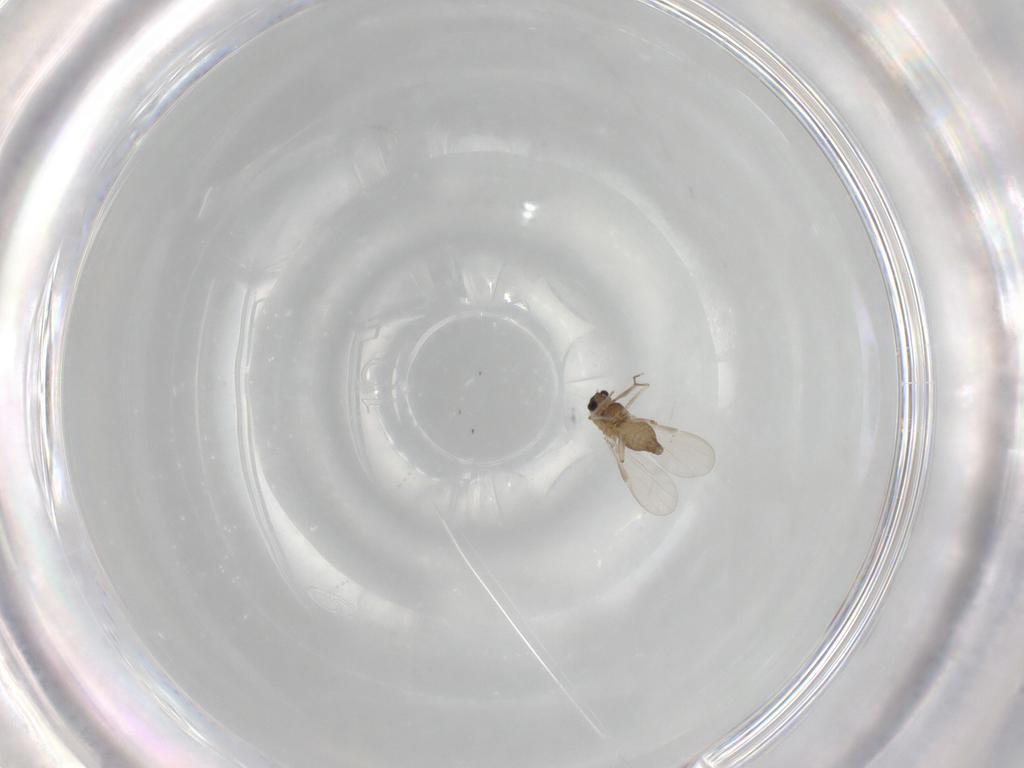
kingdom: Animalia
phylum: Arthropoda
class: Insecta
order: Diptera
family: Chironomidae
